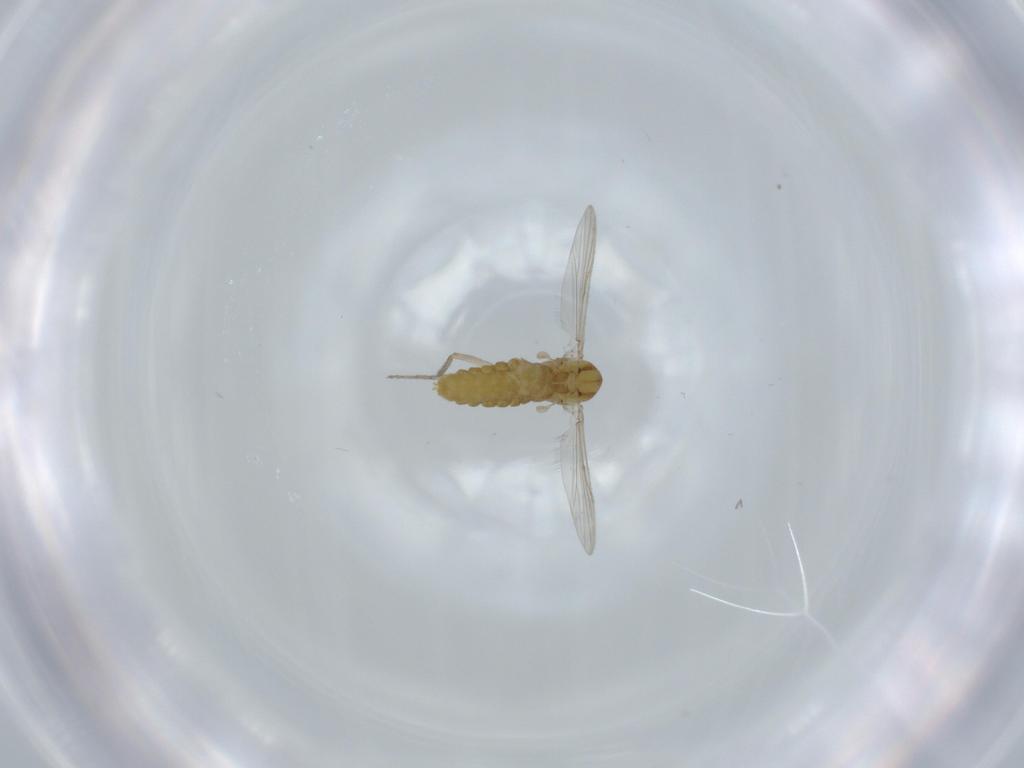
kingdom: Animalia
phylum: Arthropoda
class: Insecta
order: Diptera
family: Chironomidae
